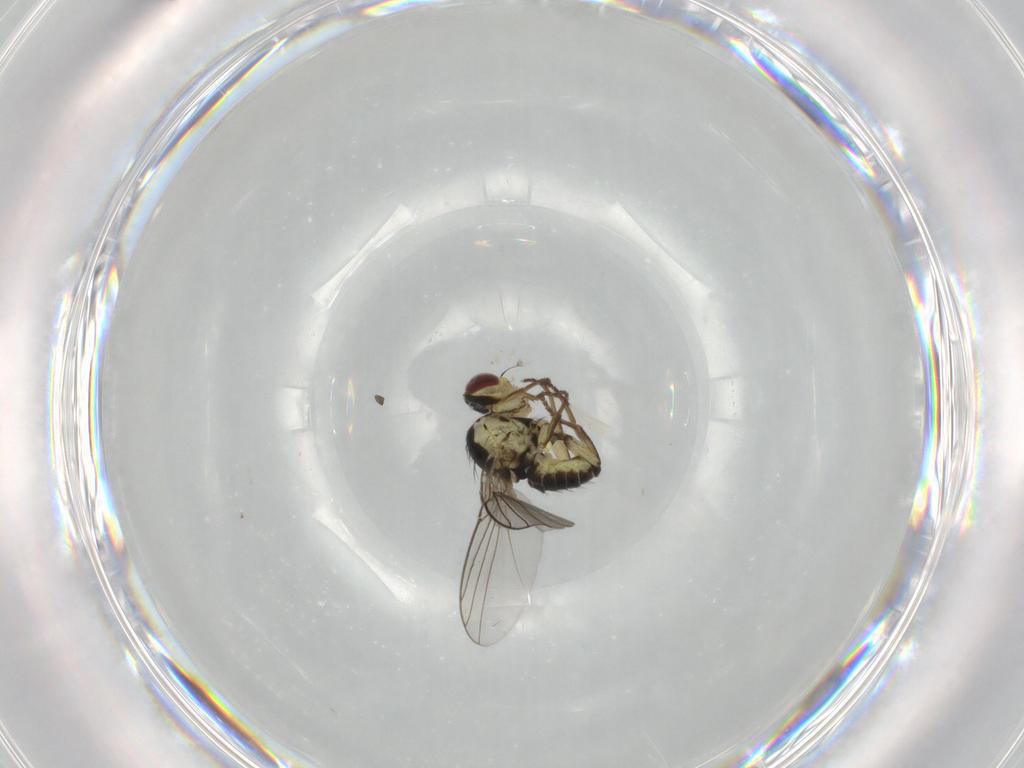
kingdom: Animalia
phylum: Arthropoda
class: Insecta
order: Diptera
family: Agromyzidae
